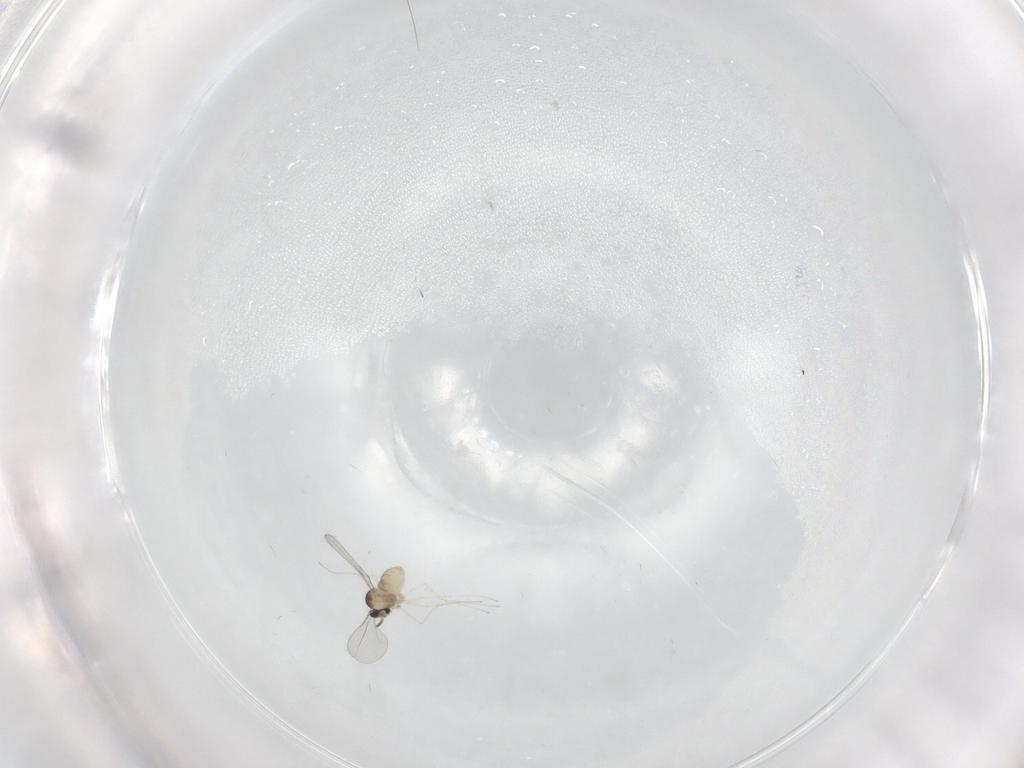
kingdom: Animalia
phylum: Arthropoda
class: Insecta
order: Diptera
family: Cecidomyiidae
